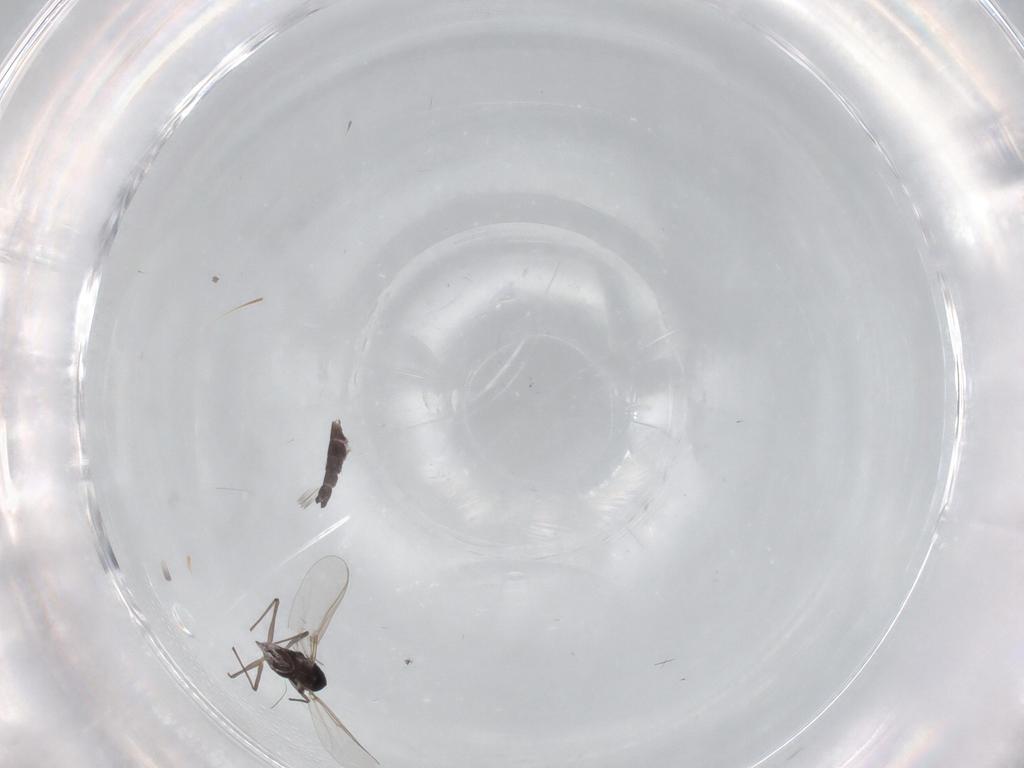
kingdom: Animalia
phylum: Arthropoda
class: Insecta
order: Diptera
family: Chironomidae
